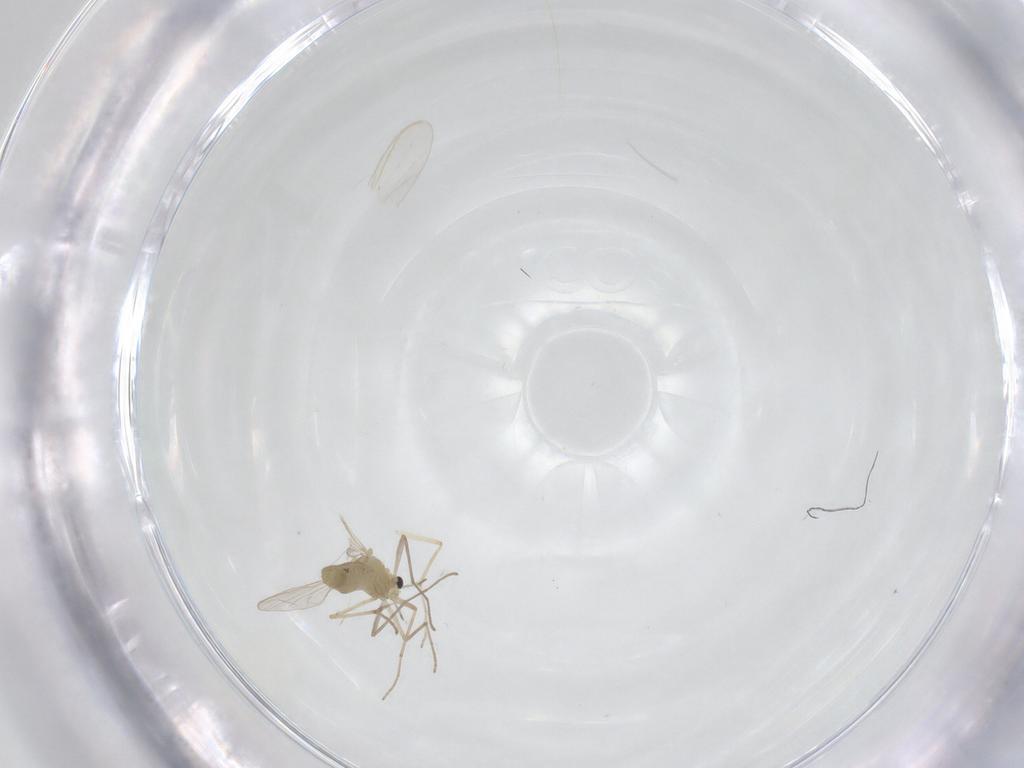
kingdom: Animalia
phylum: Arthropoda
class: Insecta
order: Diptera
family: Chironomidae
